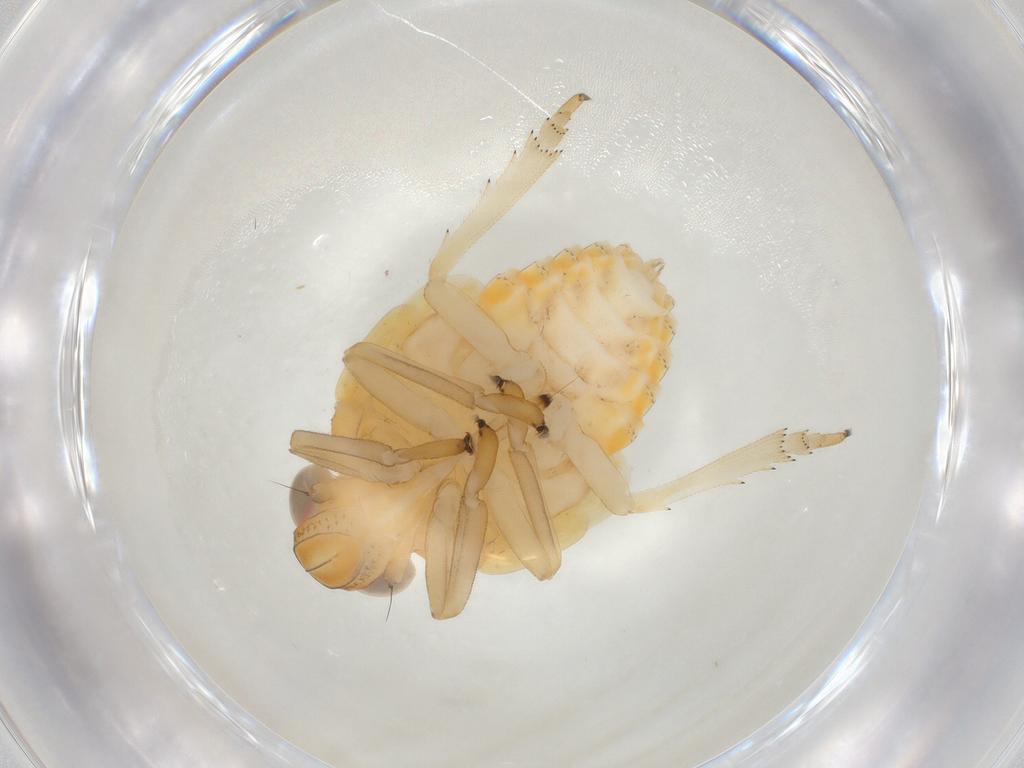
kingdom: Animalia
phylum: Arthropoda
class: Insecta
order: Hemiptera
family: Issidae
